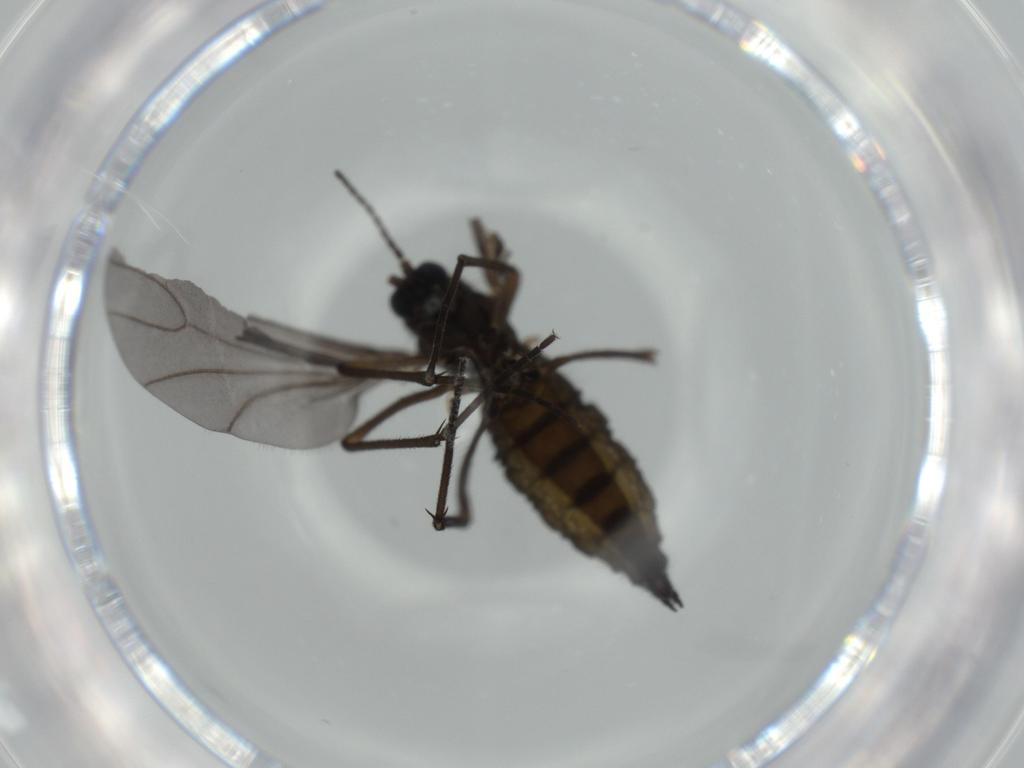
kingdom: Animalia
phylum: Arthropoda
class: Insecta
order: Diptera
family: Sciaridae
